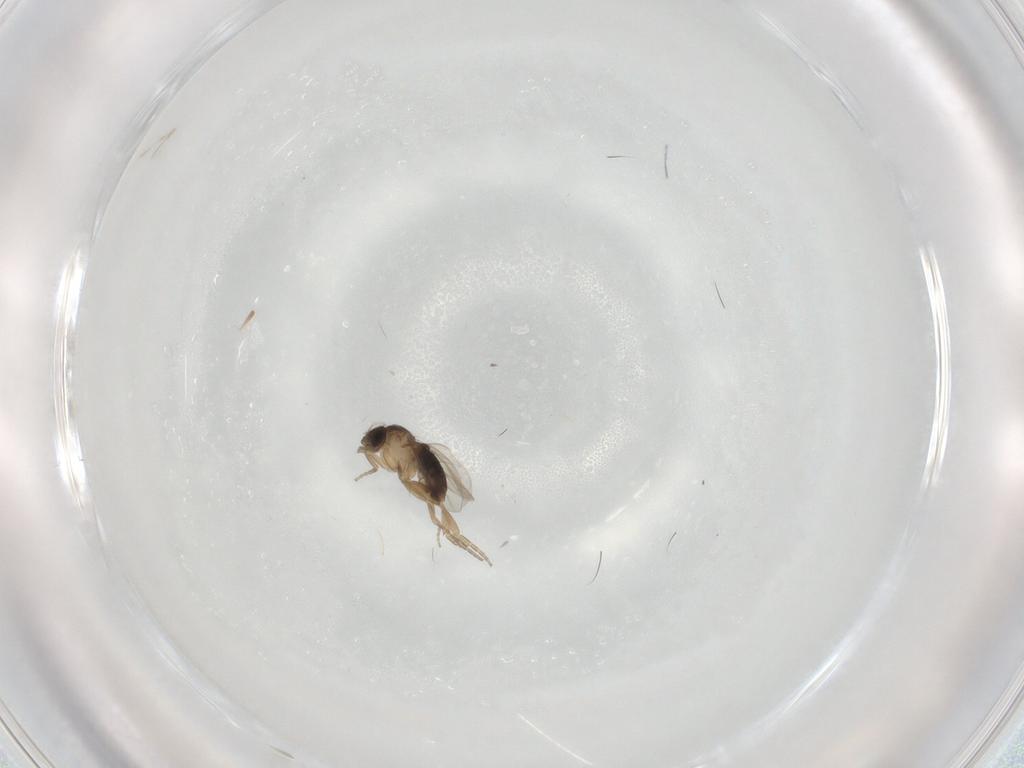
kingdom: Animalia
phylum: Arthropoda
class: Insecta
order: Diptera
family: Phoridae
